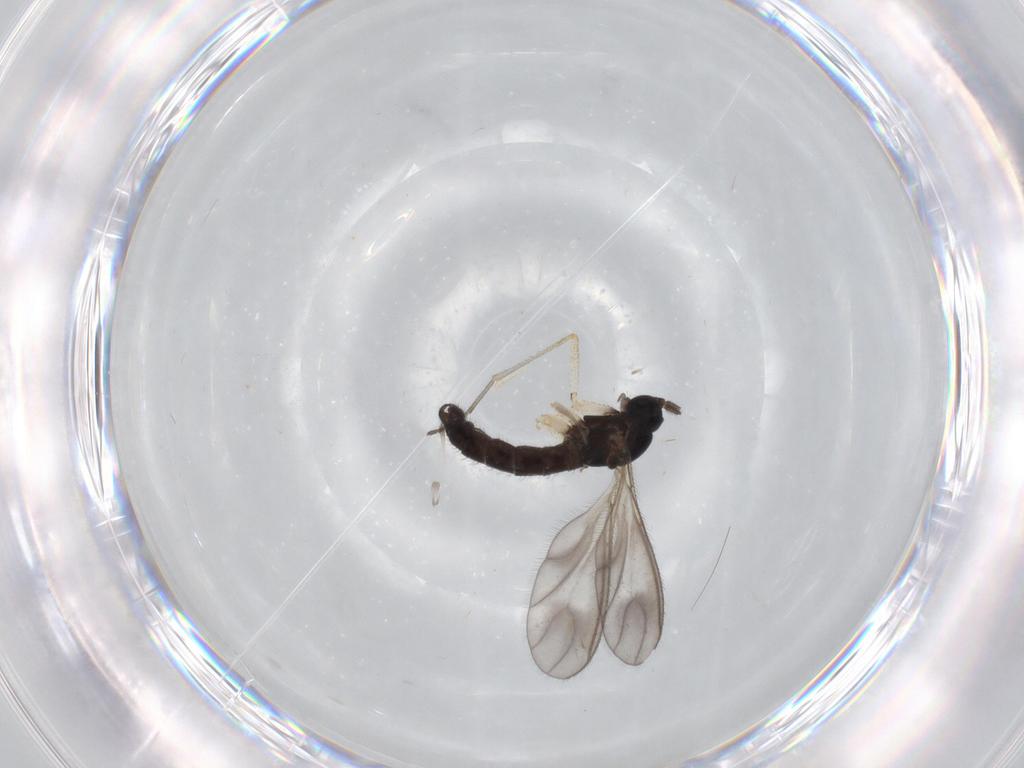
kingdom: Animalia
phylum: Arthropoda
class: Insecta
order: Diptera
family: Sciaridae
